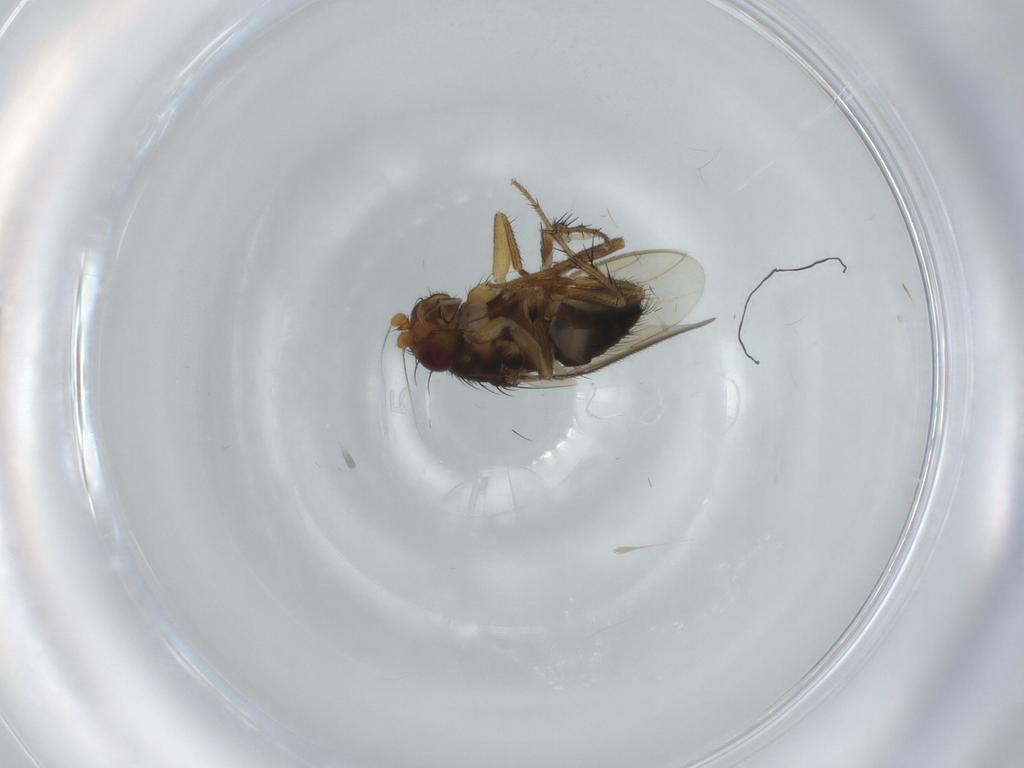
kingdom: Animalia
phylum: Arthropoda
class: Insecta
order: Diptera
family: Sphaeroceridae
